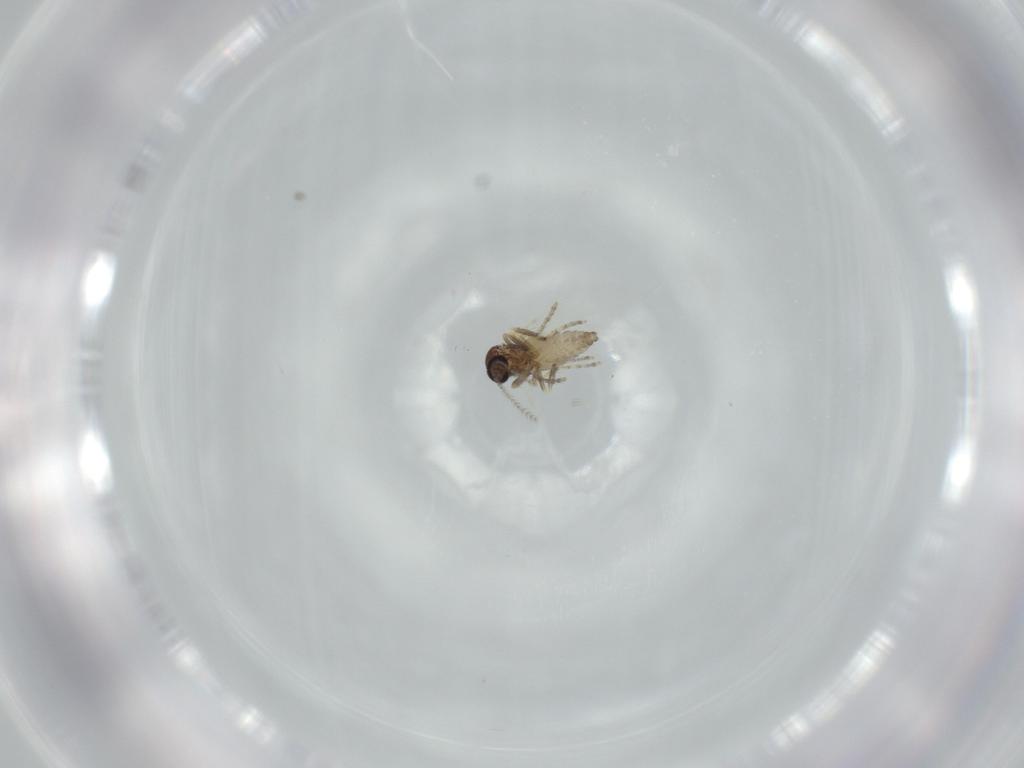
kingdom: Animalia
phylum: Arthropoda
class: Insecta
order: Diptera
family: Ceratopogonidae
